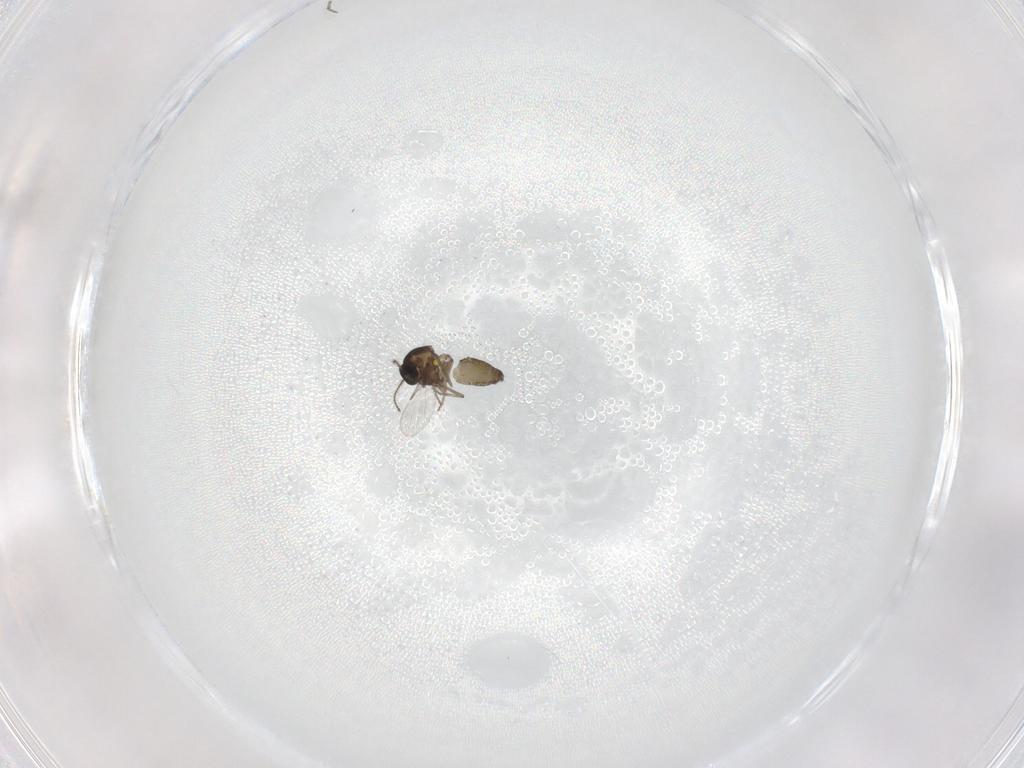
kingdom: Animalia
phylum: Arthropoda
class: Insecta
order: Diptera
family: Ceratopogonidae
